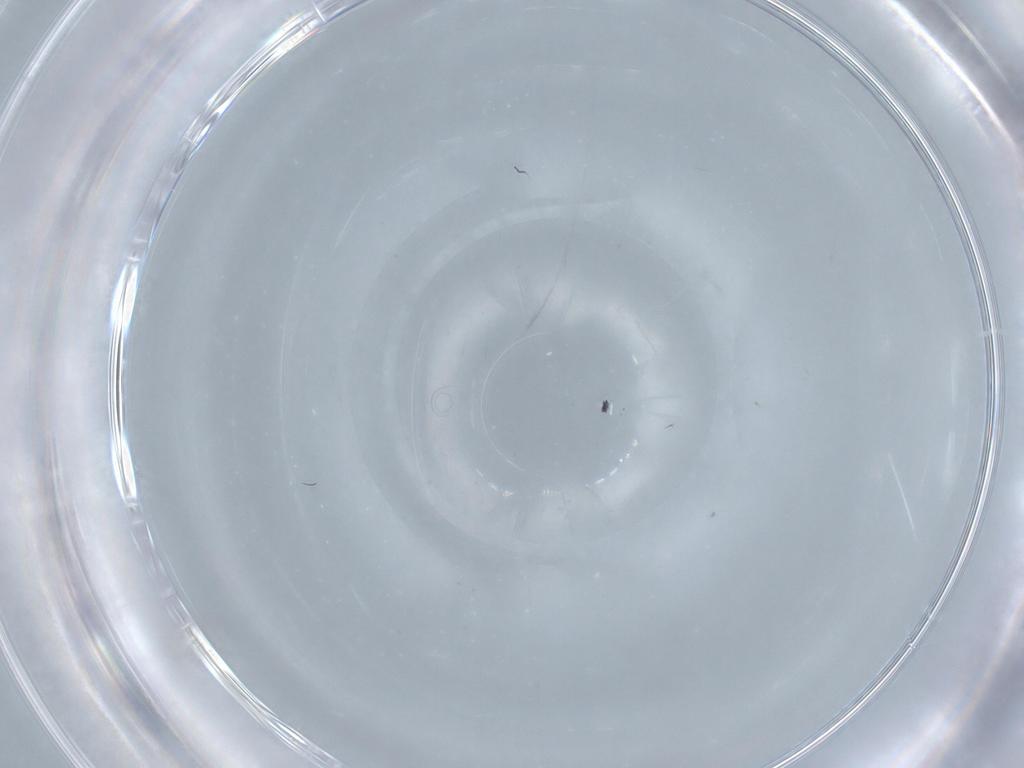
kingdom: Animalia
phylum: Arthropoda
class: Insecta
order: Diptera
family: Sciaridae
